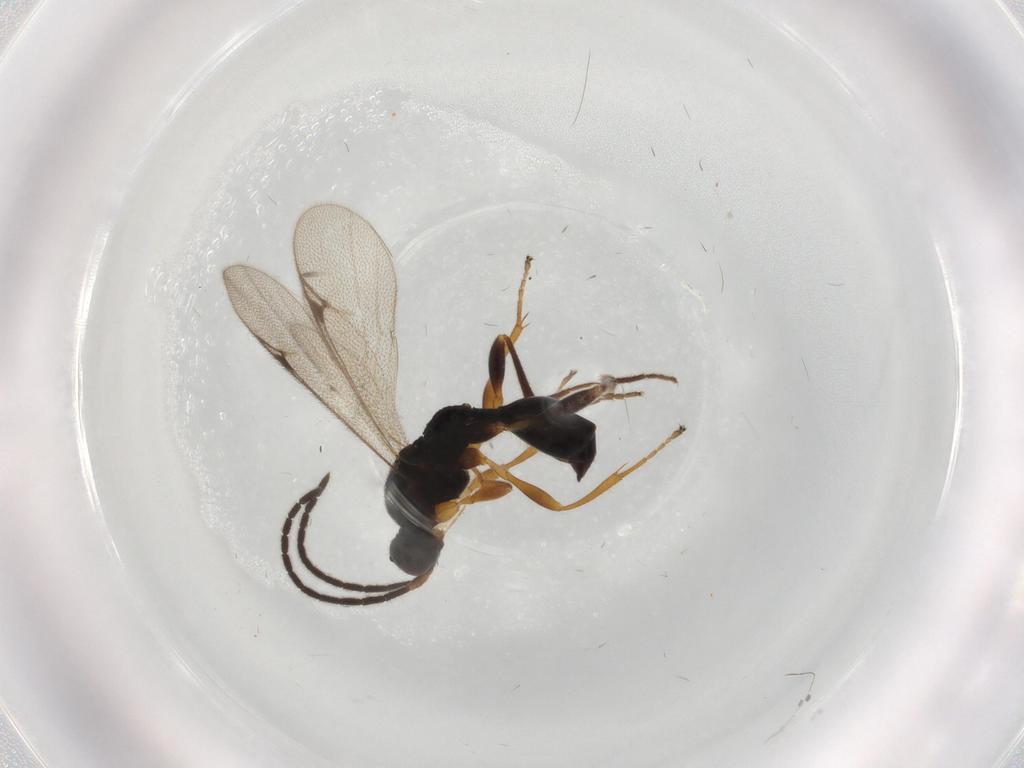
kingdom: Animalia
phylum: Arthropoda
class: Insecta
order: Hymenoptera
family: Proctotrupidae
